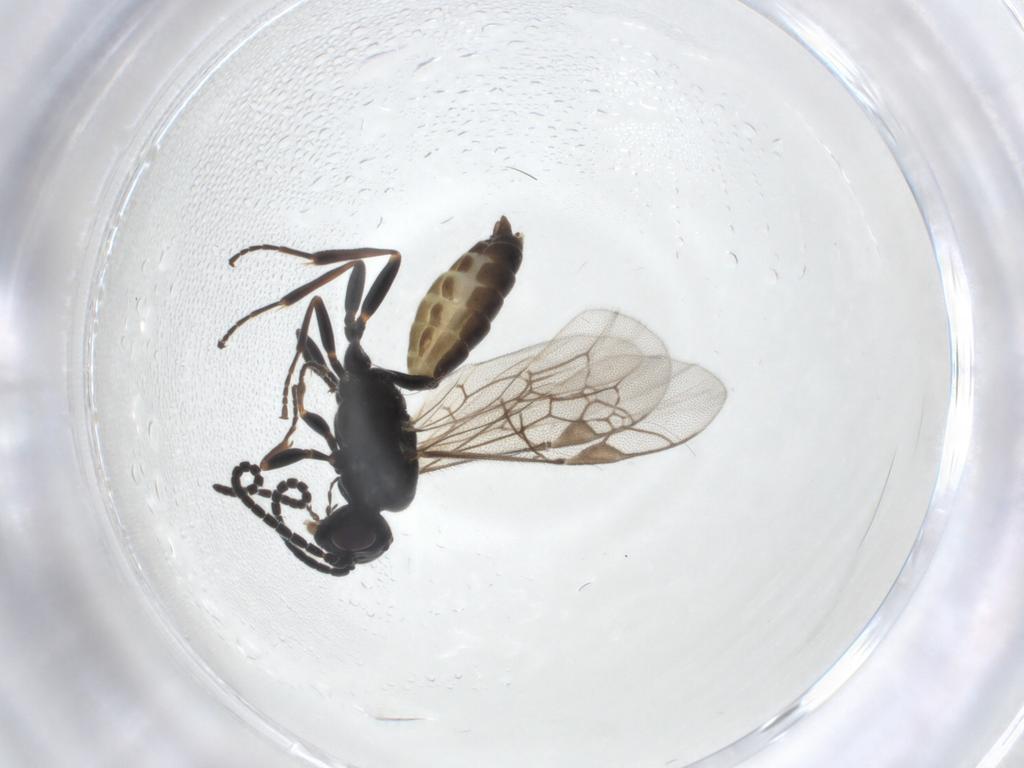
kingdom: Animalia
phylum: Arthropoda
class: Insecta
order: Hymenoptera
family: Ichneumonidae
